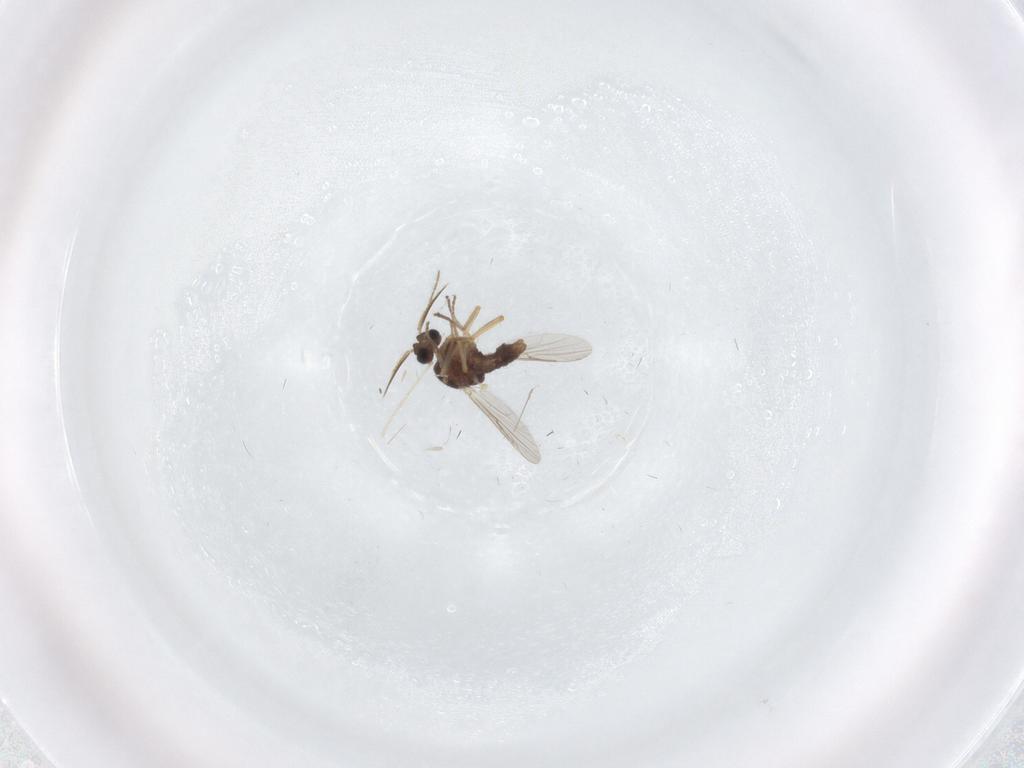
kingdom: Animalia
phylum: Arthropoda
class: Insecta
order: Diptera
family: Ceratopogonidae
